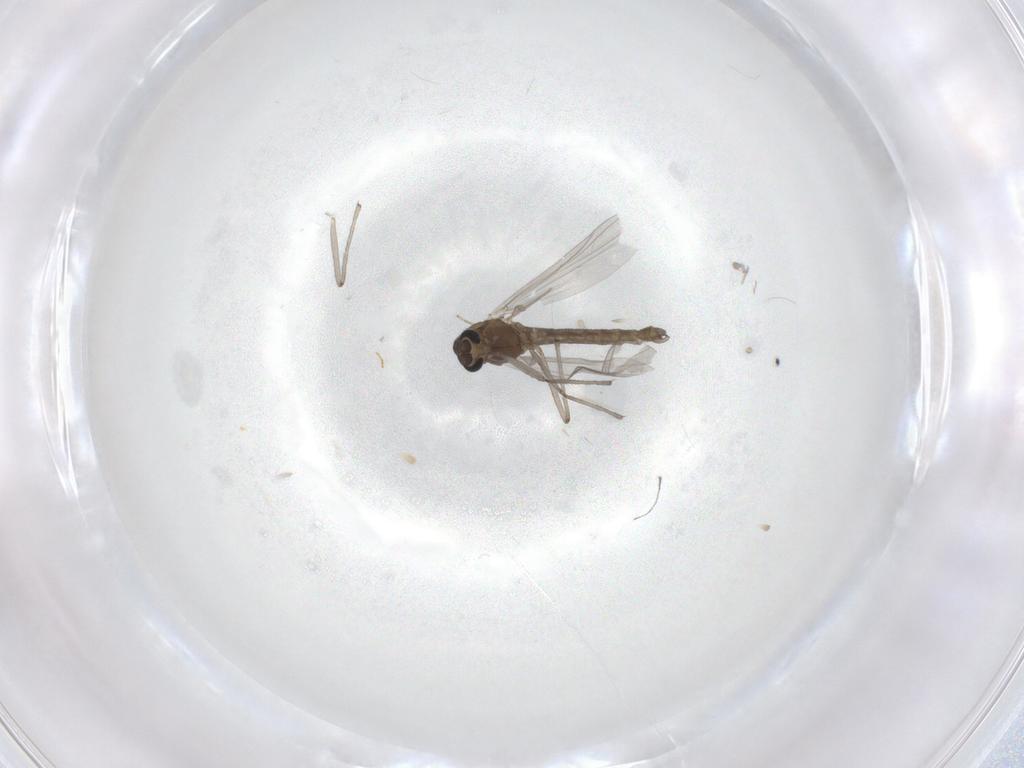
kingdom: Animalia
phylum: Arthropoda
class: Insecta
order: Diptera
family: Chironomidae
